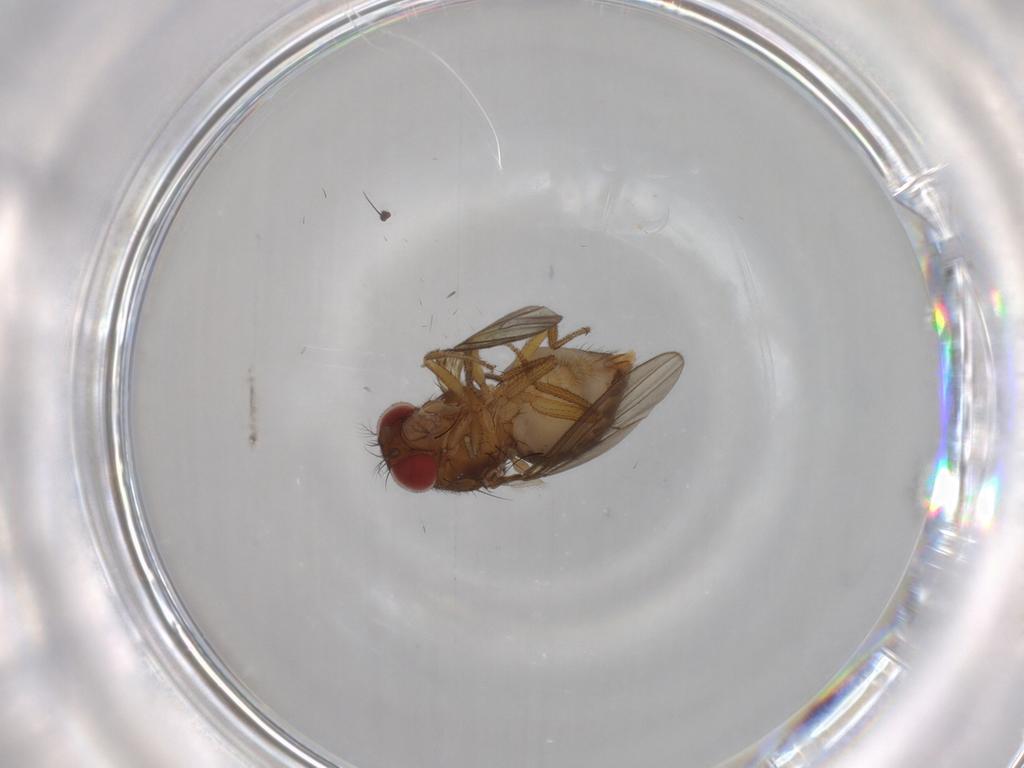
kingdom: Animalia
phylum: Arthropoda
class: Insecta
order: Diptera
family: Drosophilidae
